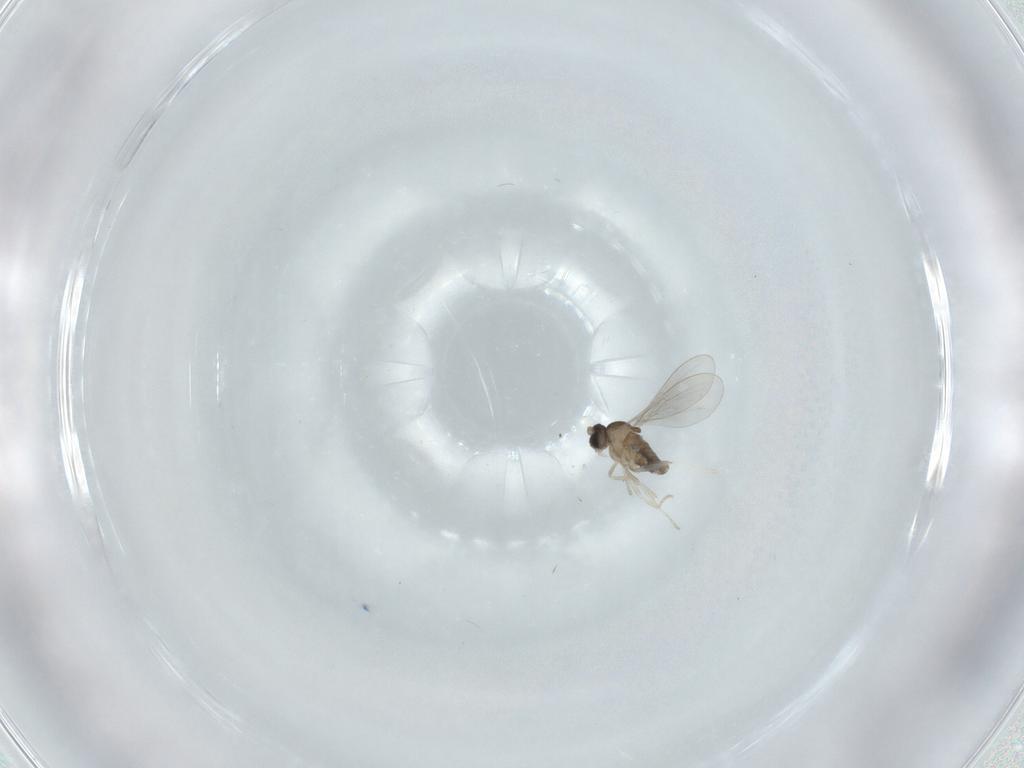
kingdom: Animalia
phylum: Arthropoda
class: Insecta
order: Diptera
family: Cecidomyiidae
